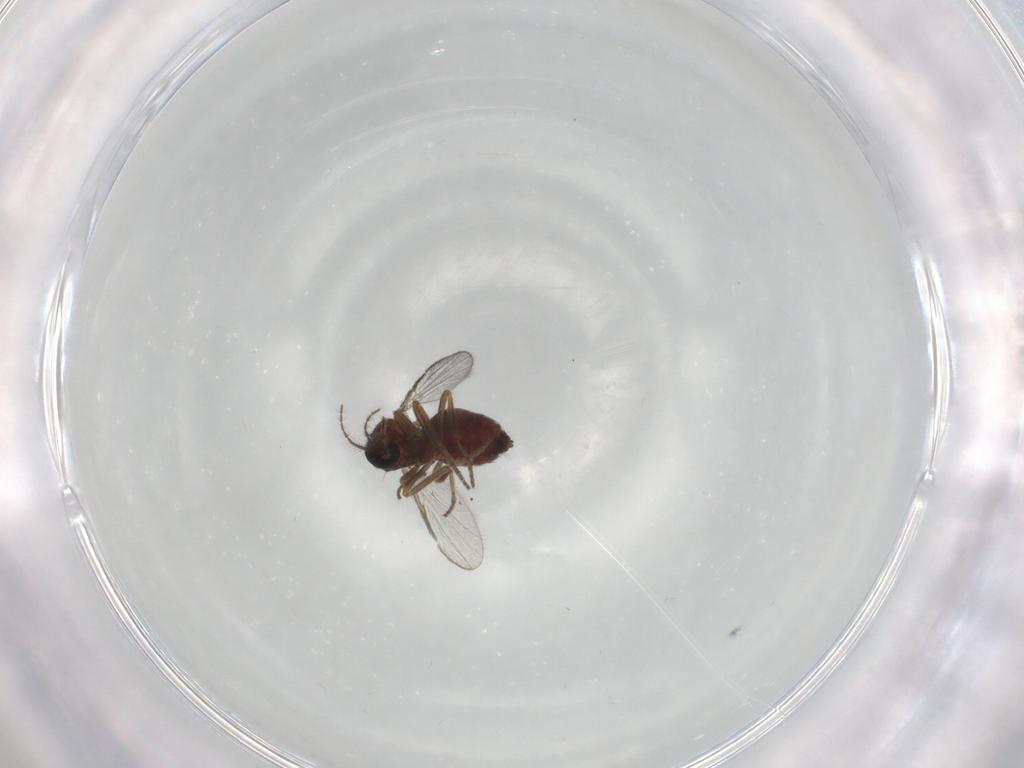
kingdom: Animalia
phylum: Arthropoda
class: Insecta
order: Diptera
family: Ceratopogonidae
